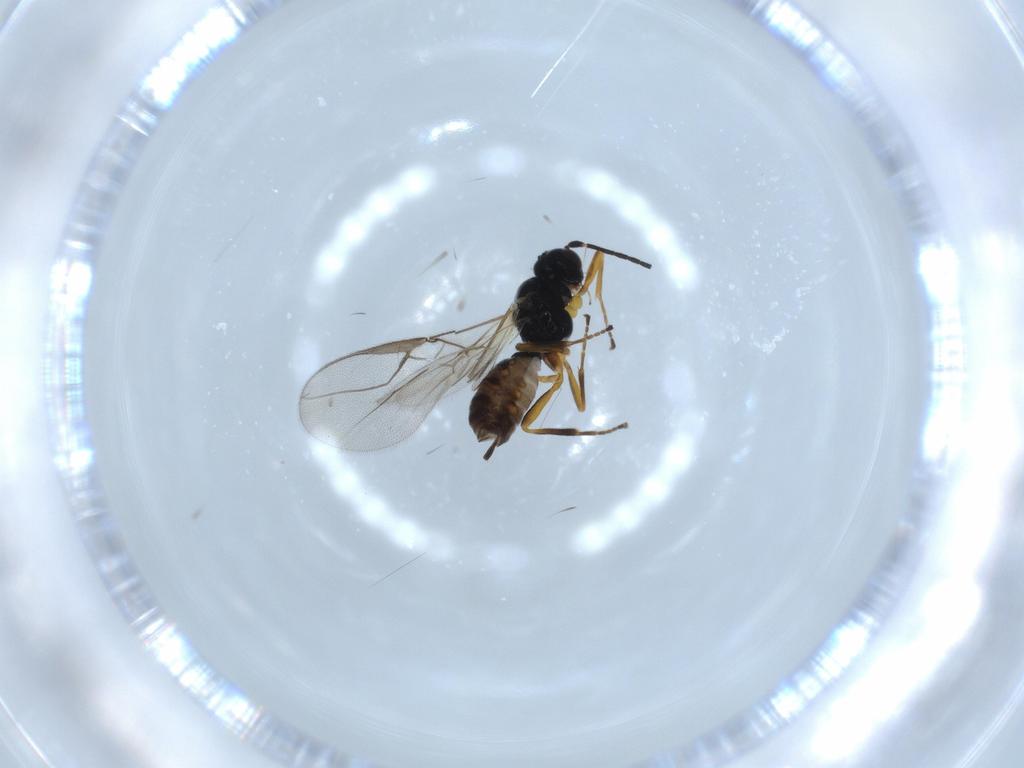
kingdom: Animalia
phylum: Arthropoda
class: Insecta
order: Hymenoptera
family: Braconidae
